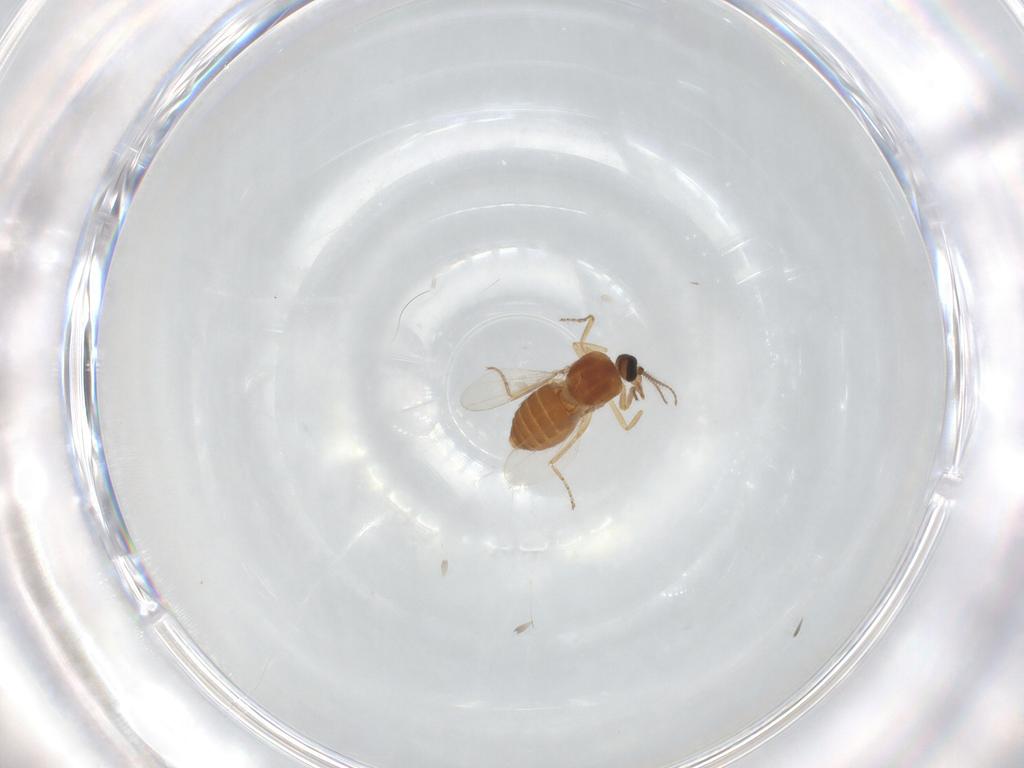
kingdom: Animalia
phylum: Arthropoda
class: Insecta
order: Diptera
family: Ceratopogonidae
